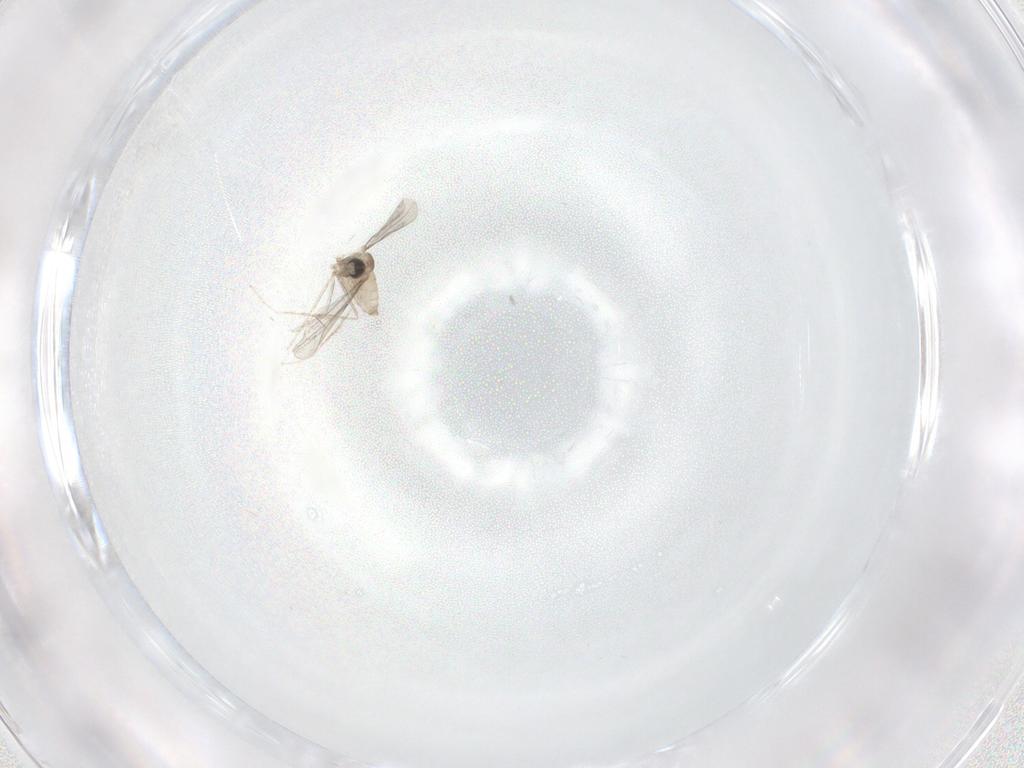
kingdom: Animalia
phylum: Arthropoda
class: Insecta
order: Diptera
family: Cecidomyiidae
